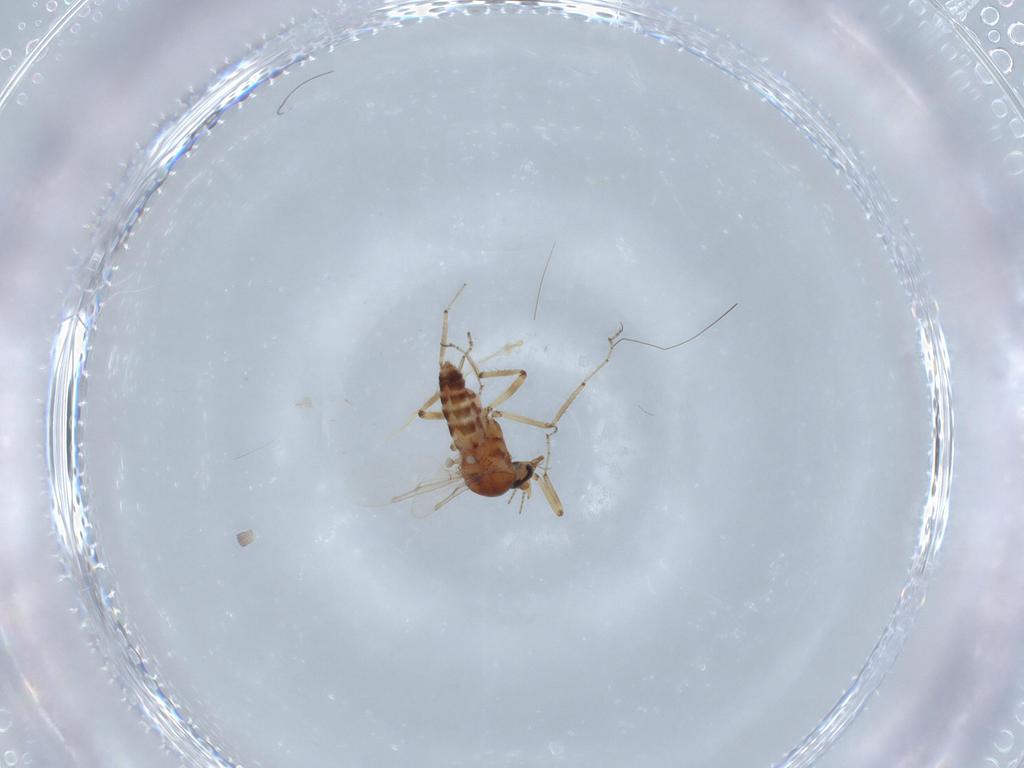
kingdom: Animalia
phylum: Arthropoda
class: Insecta
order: Diptera
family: Ceratopogonidae
